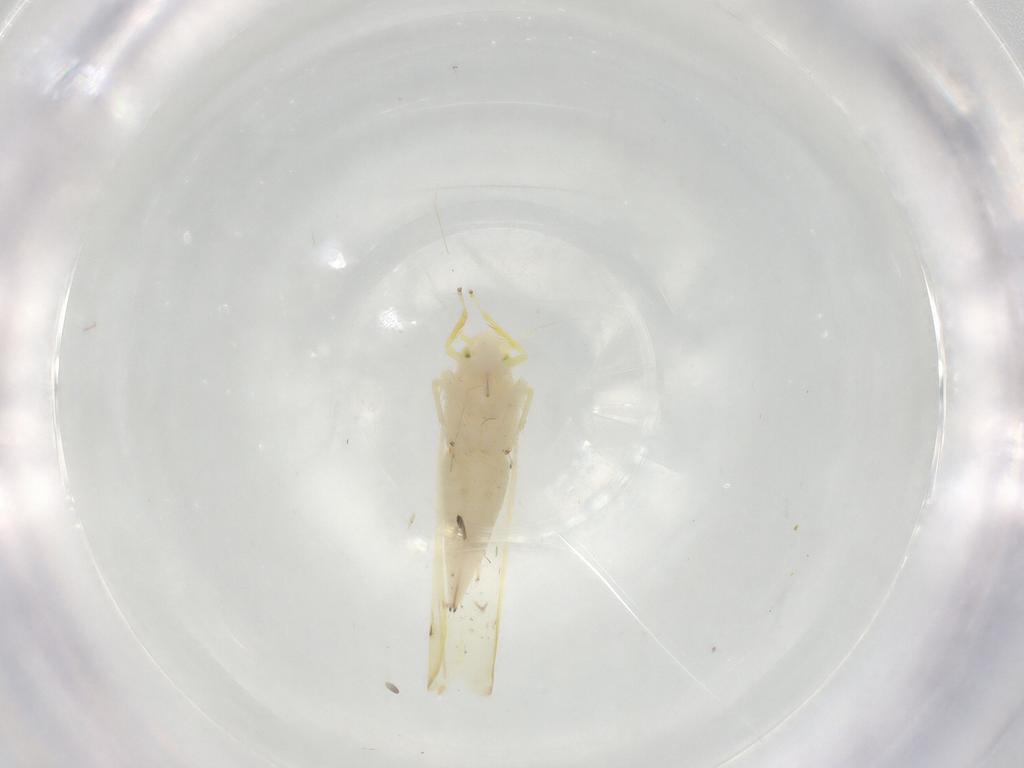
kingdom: Animalia
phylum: Arthropoda
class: Insecta
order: Hemiptera
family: Cicadellidae
